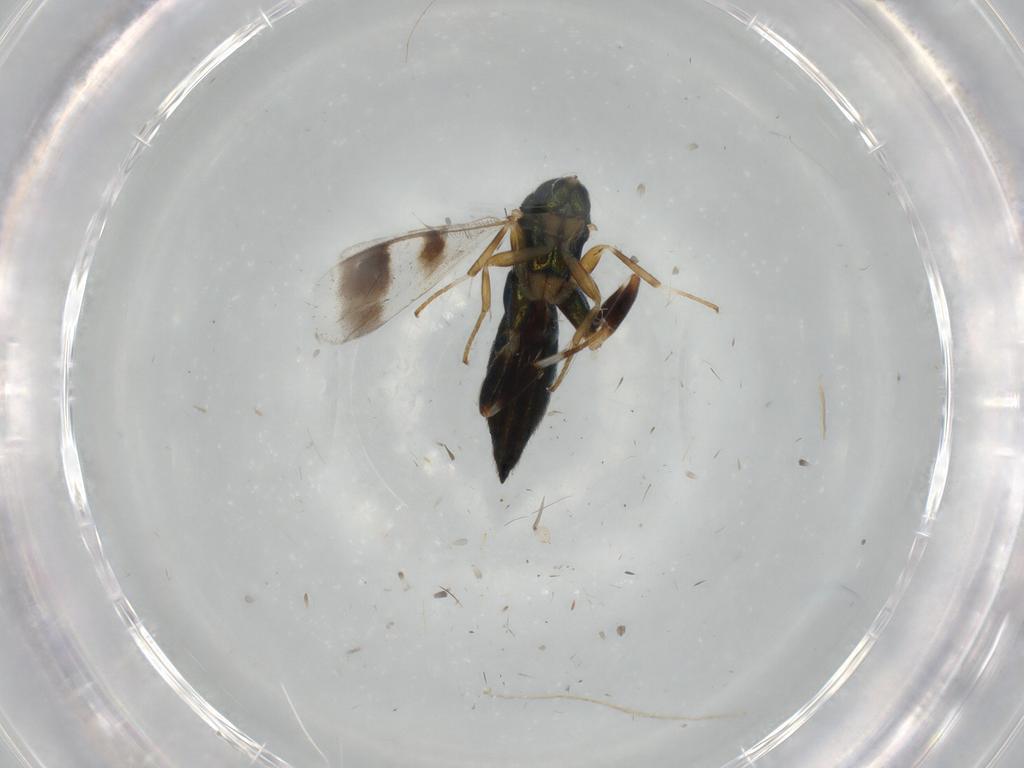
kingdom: Animalia
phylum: Arthropoda
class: Insecta
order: Hymenoptera
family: Cleonyminae
